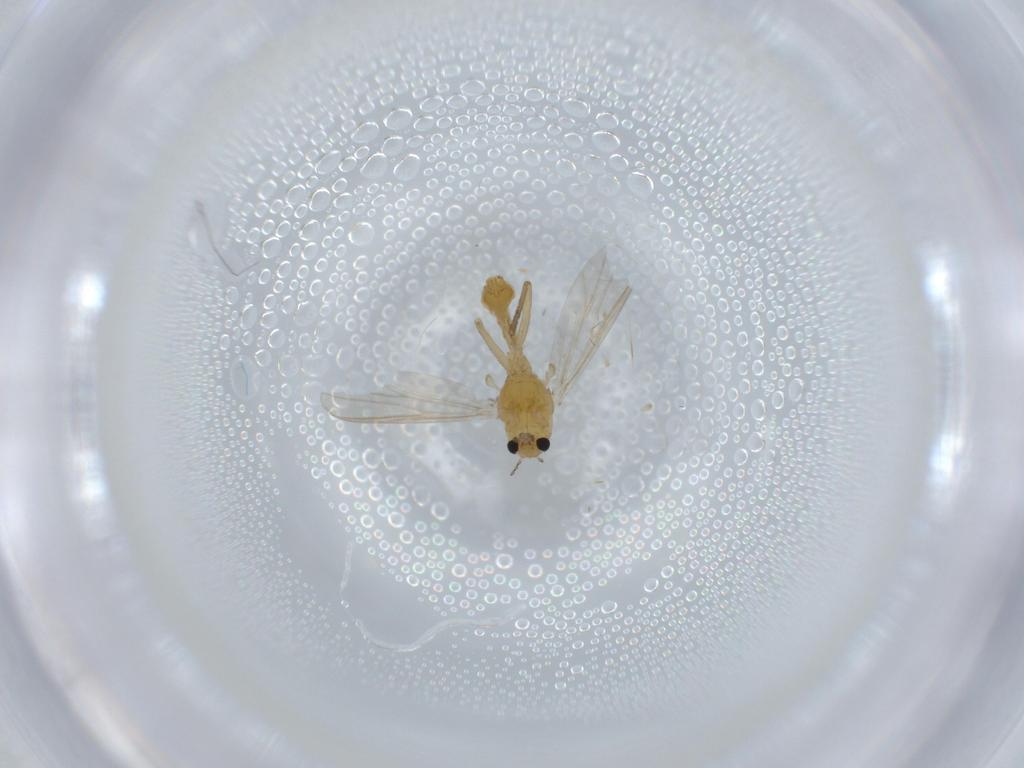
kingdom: Animalia
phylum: Arthropoda
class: Insecta
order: Diptera
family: Chironomidae
